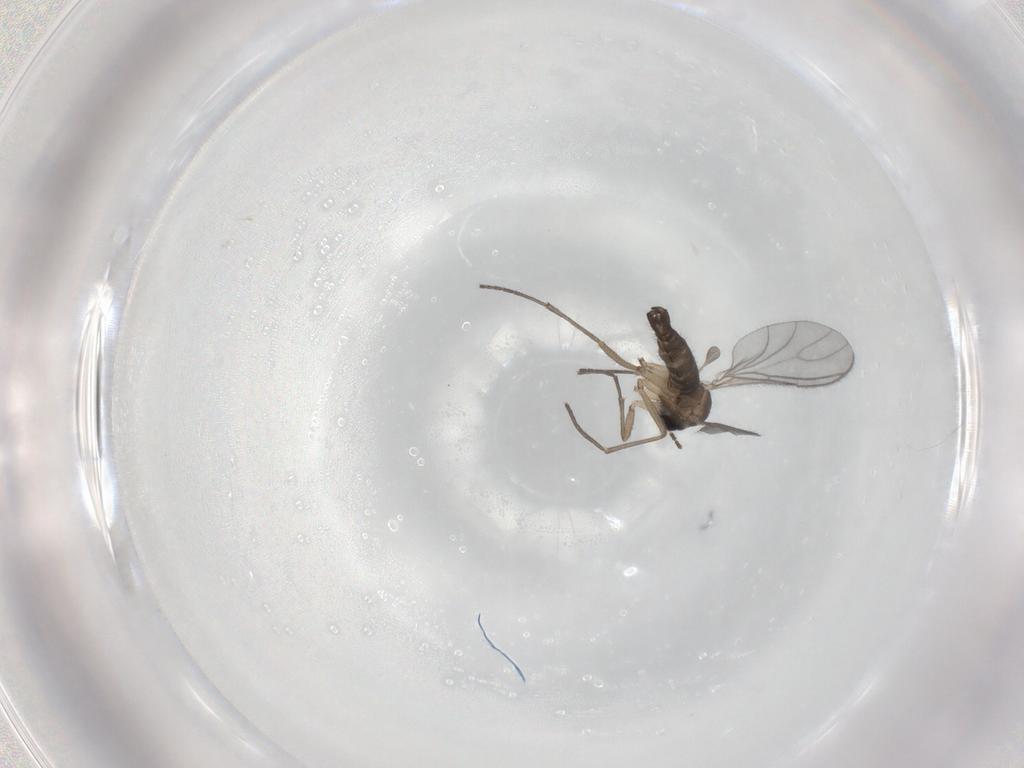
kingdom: Animalia
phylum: Arthropoda
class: Insecta
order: Diptera
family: Sciaridae
